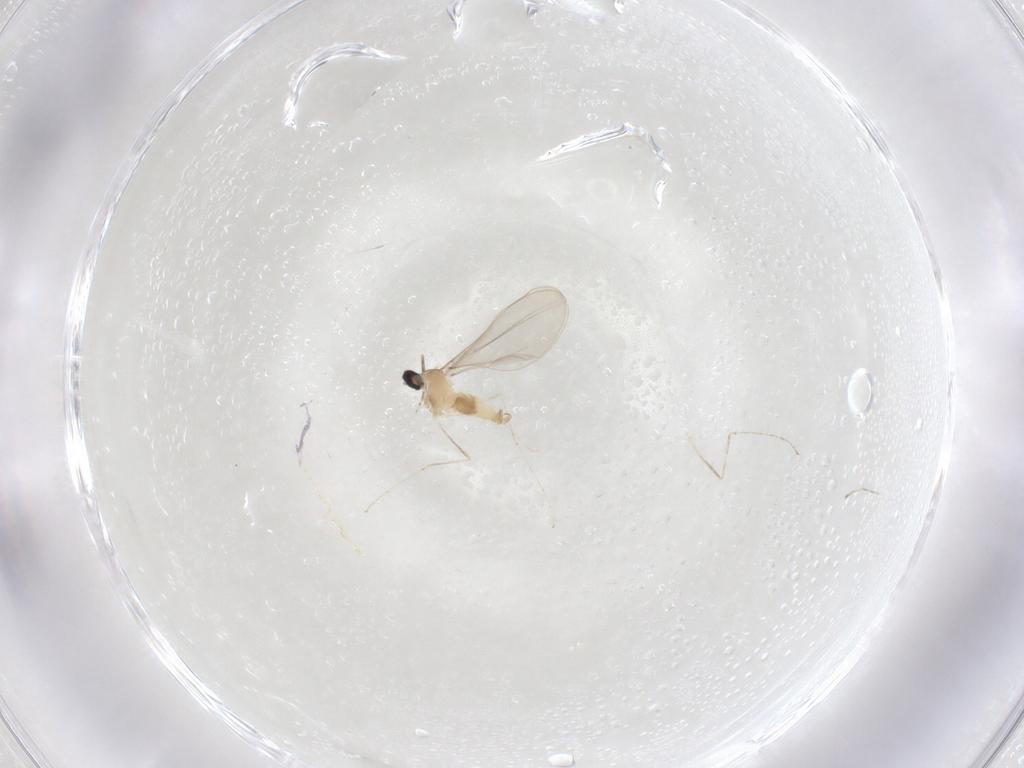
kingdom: Animalia
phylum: Arthropoda
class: Insecta
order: Diptera
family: Cecidomyiidae
